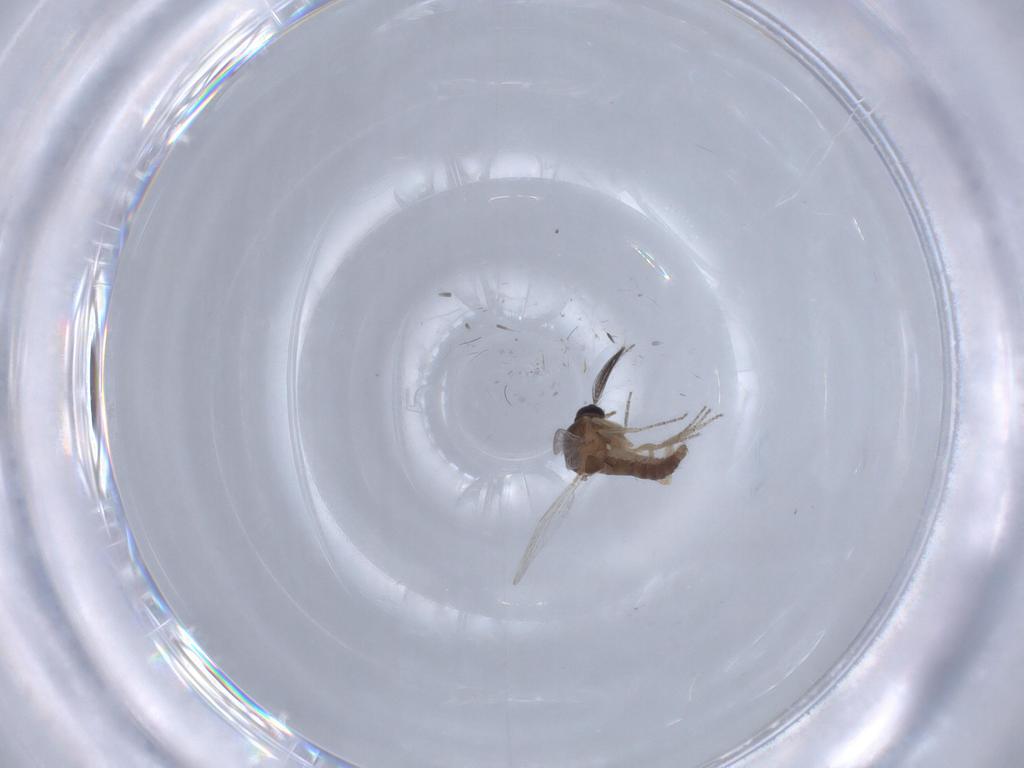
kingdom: Animalia
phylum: Arthropoda
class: Insecta
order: Diptera
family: Ceratopogonidae
